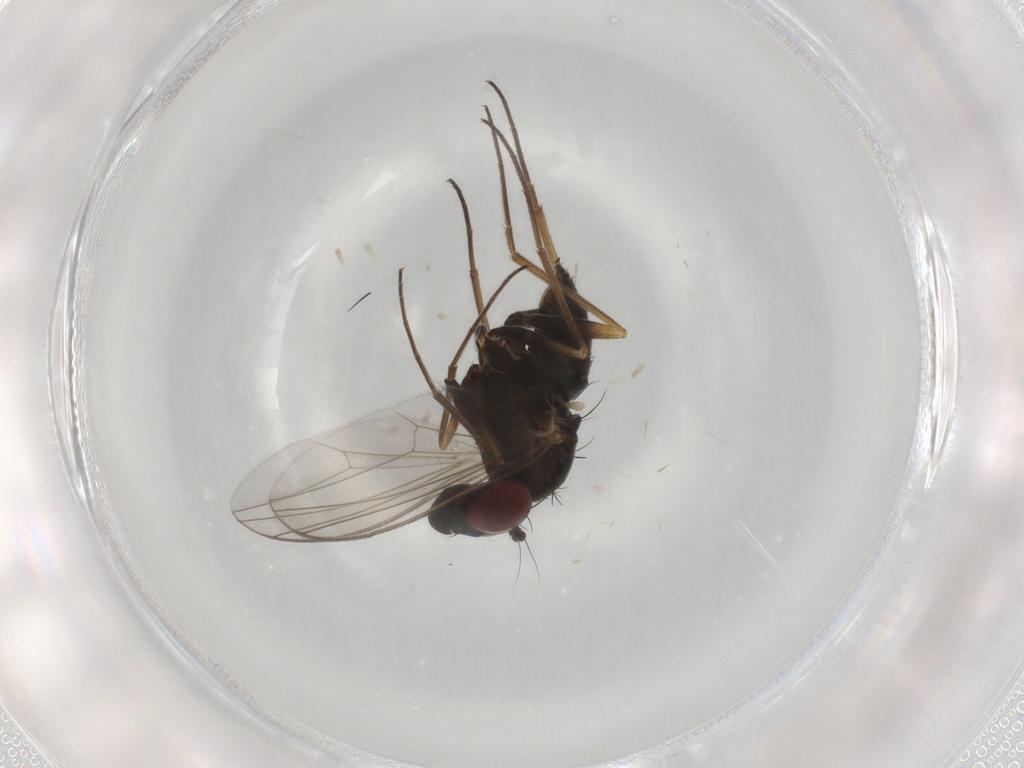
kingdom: Animalia
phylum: Arthropoda
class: Insecta
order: Diptera
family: Dolichopodidae
